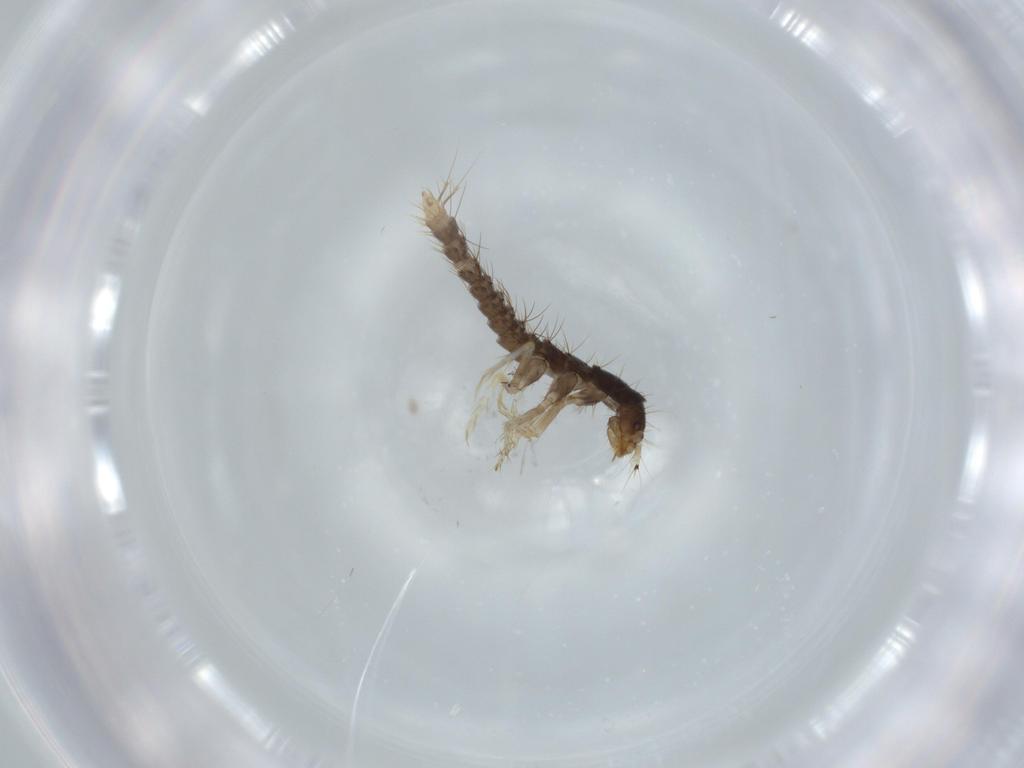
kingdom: Animalia
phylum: Arthropoda
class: Insecta
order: Coleoptera
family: Staphylinidae
